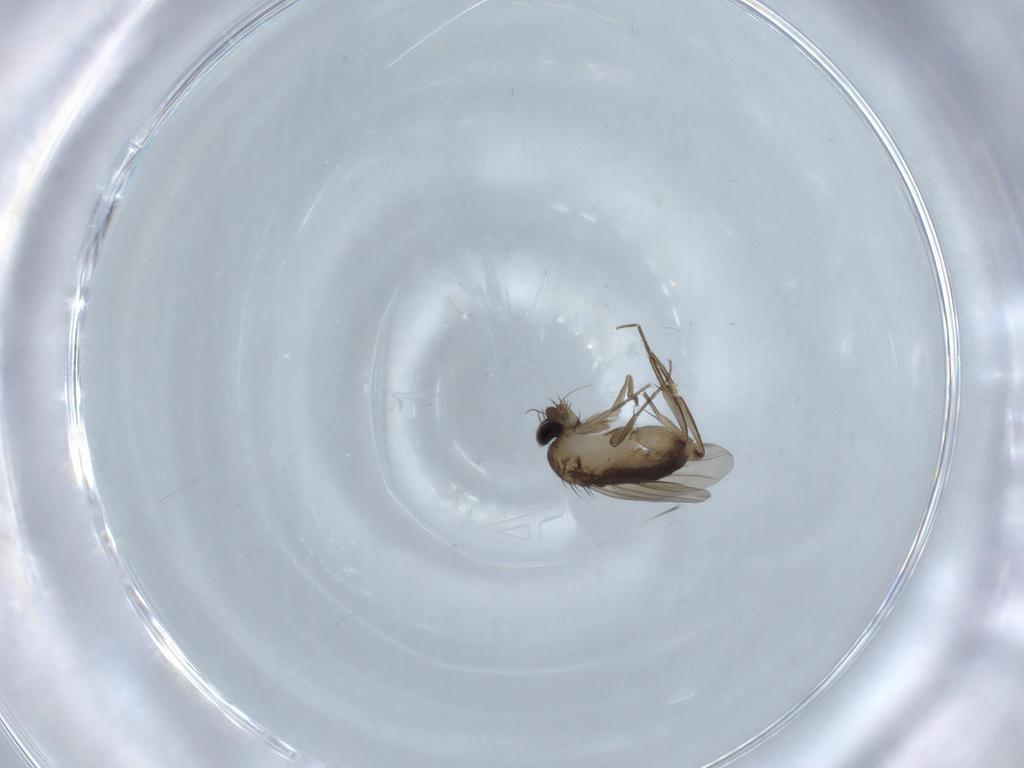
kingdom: Animalia
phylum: Arthropoda
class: Insecta
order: Diptera
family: Phoridae
